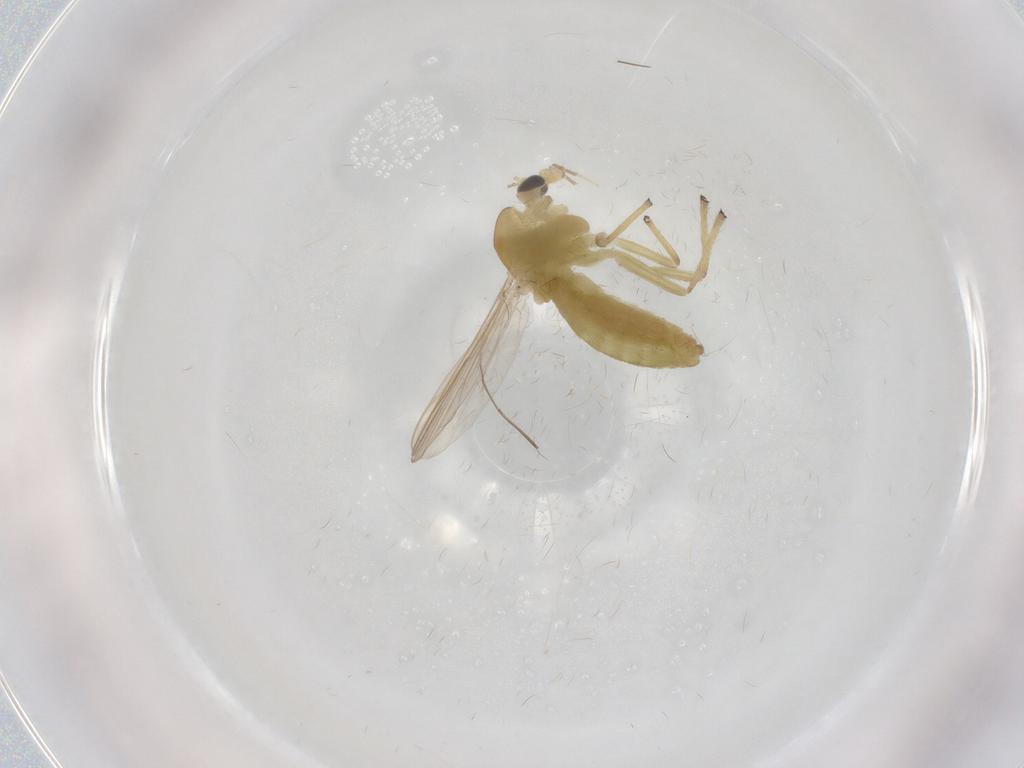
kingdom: Animalia
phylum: Arthropoda
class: Insecta
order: Diptera
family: Chironomidae
